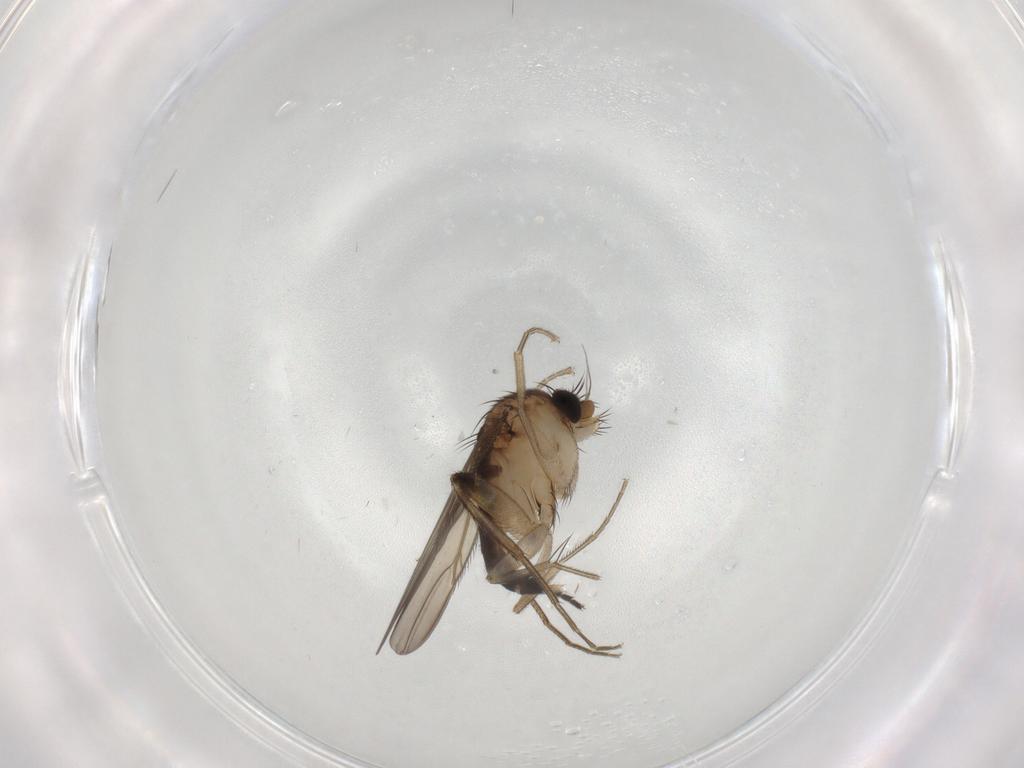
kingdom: Animalia
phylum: Arthropoda
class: Insecta
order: Diptera
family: Phoridae
